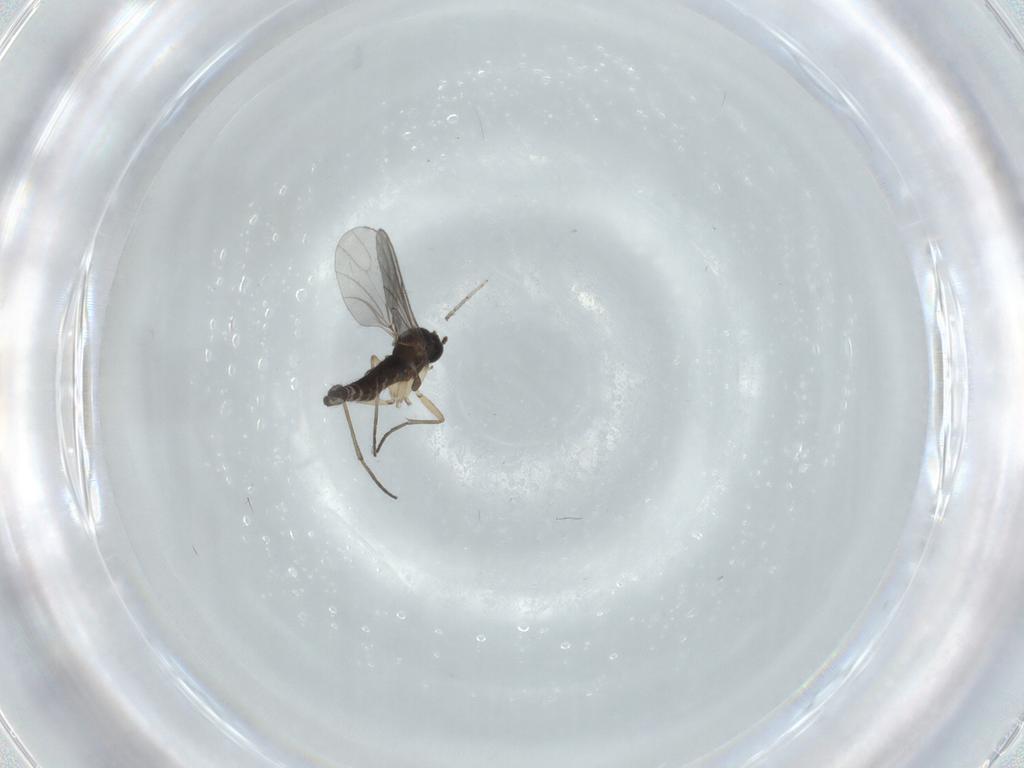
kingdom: Animalia
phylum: Arthropoda
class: Insecta
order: Diptera
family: Sciaridae
